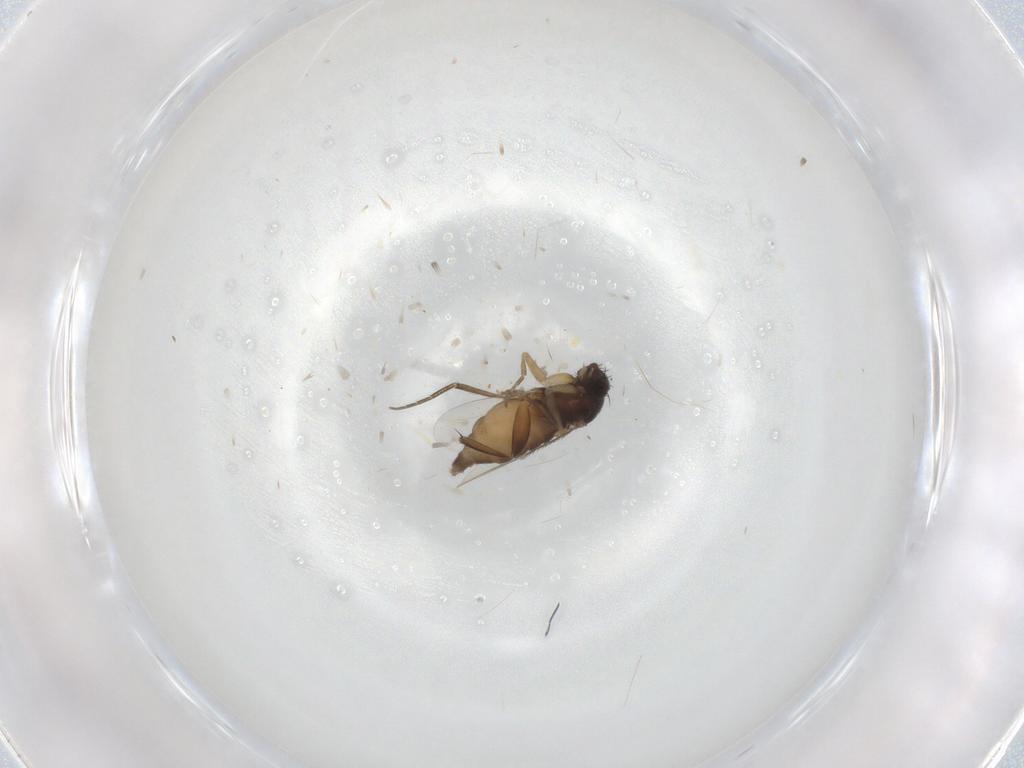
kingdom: Animalia
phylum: Arthropoda
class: Insecta
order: Diptera
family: Phoridae
